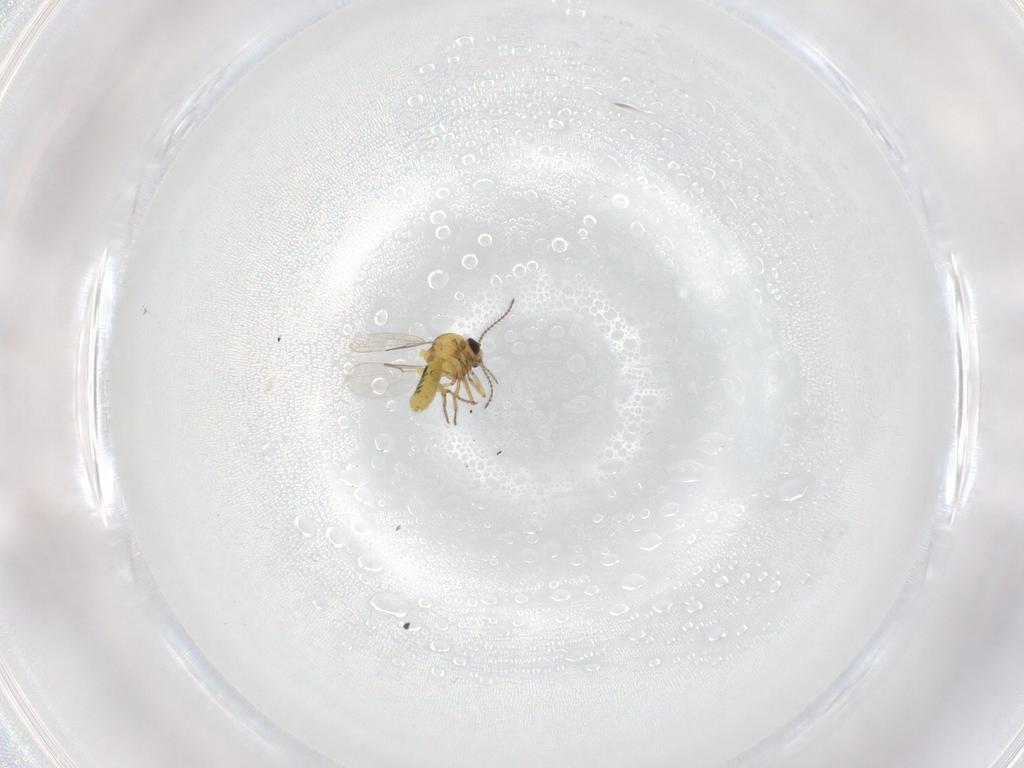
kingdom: Animalia
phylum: Arthropoda
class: Insecta
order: Diptera
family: Ceratopogonidae
